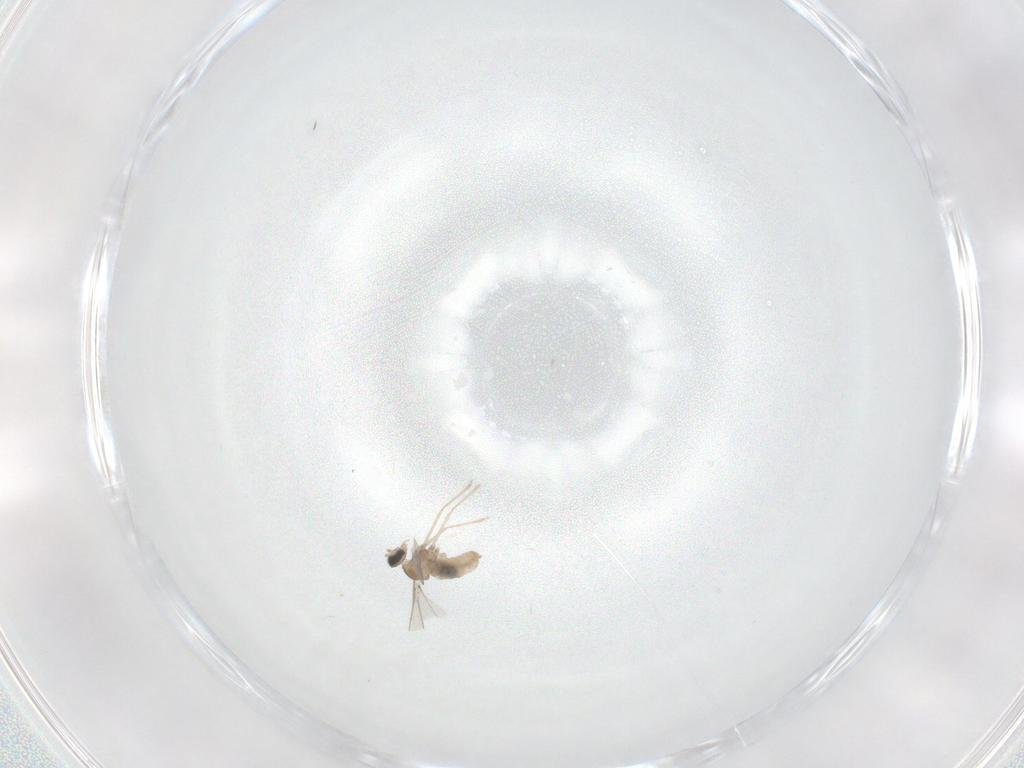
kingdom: Animalia
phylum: Arthropoda
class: Insecta
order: Diptera
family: Cecidomyiidae
